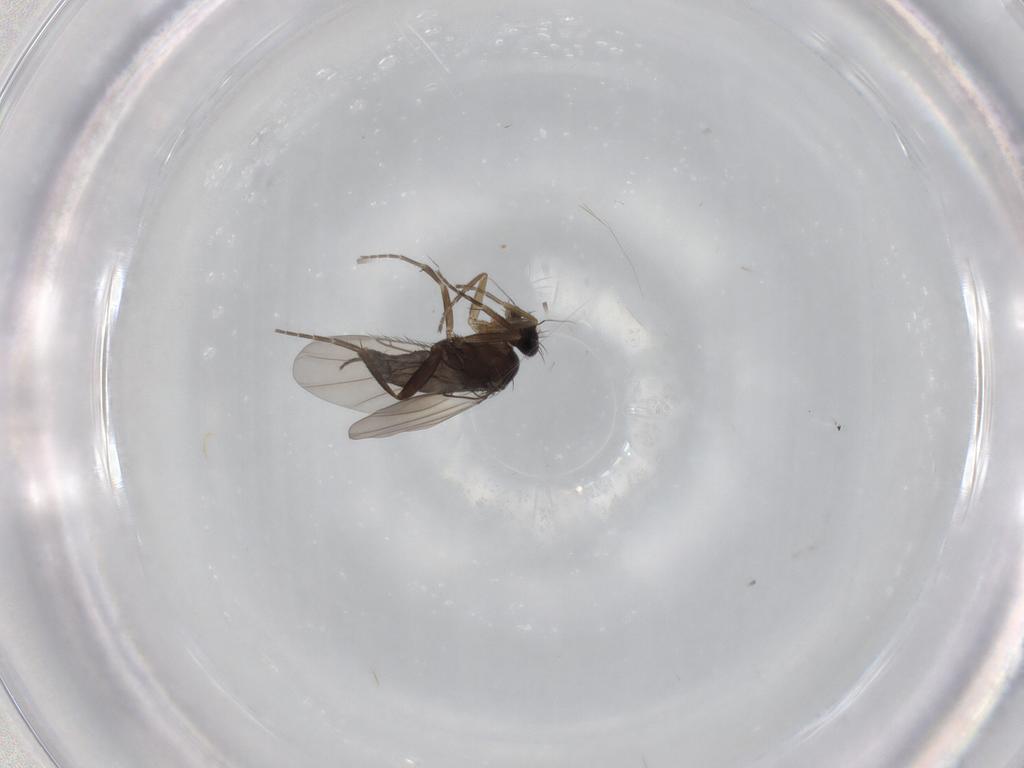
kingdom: Animalia
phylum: Arthropoda
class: Insecta
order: Diptera
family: Phoridae
